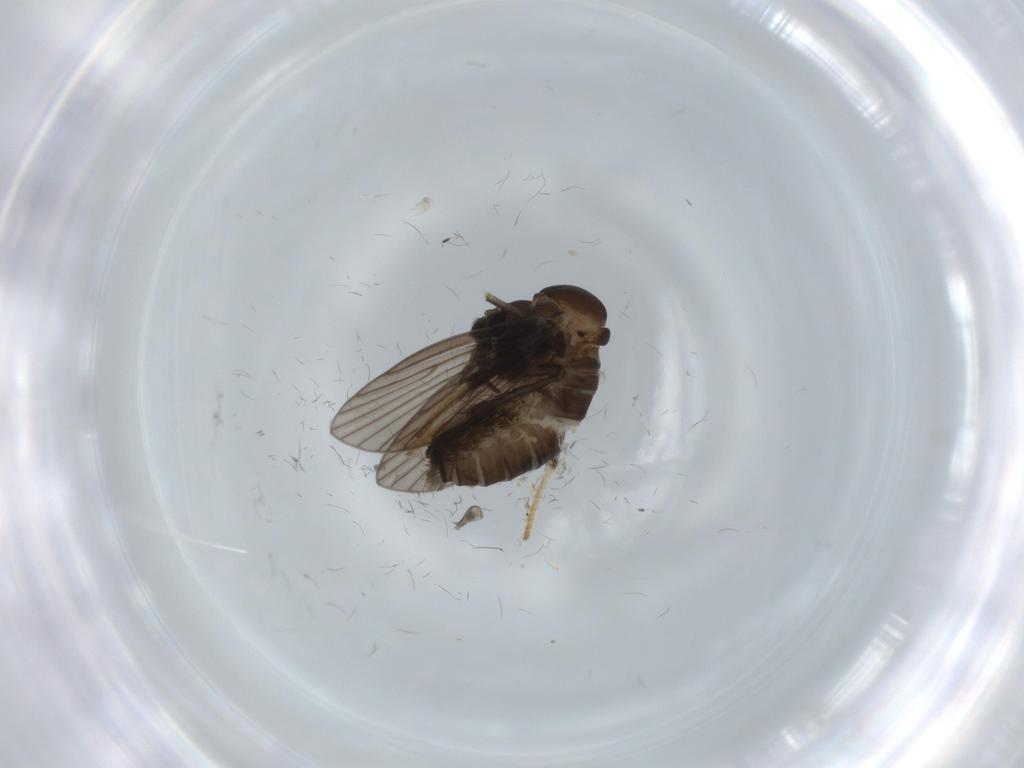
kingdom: Animalia
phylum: Arthropoda
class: Insecta
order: Diptera
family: Psychodidae
